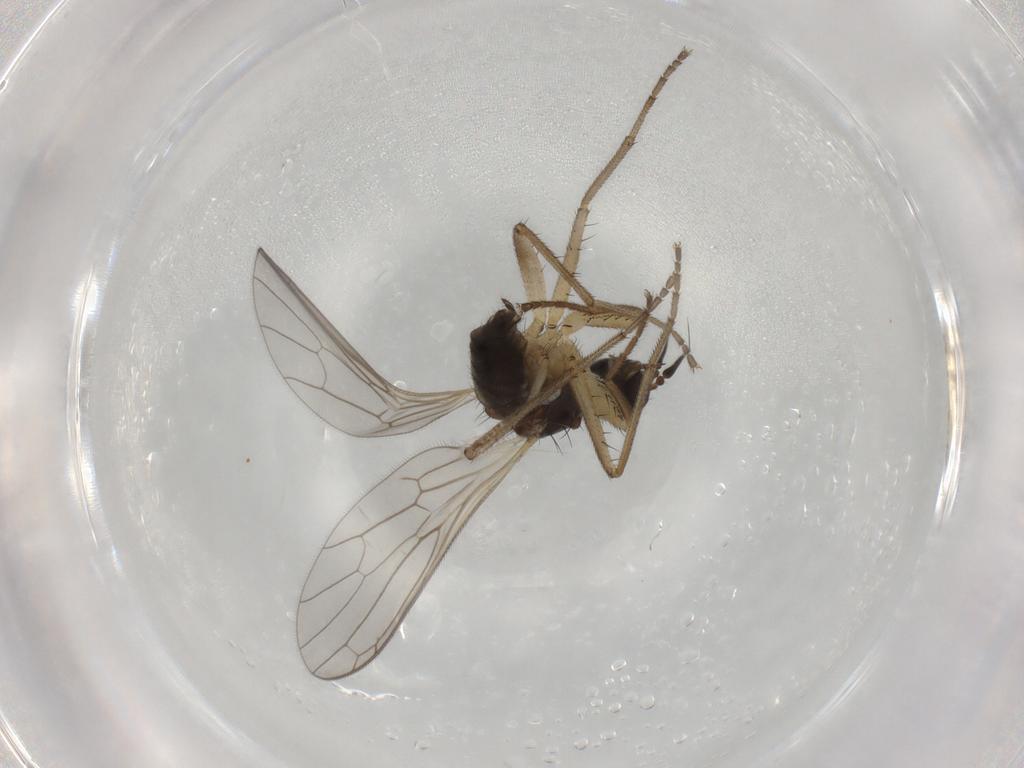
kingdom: Animalia
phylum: Arthropoda
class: Insecta
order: Diptera
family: Empididae
